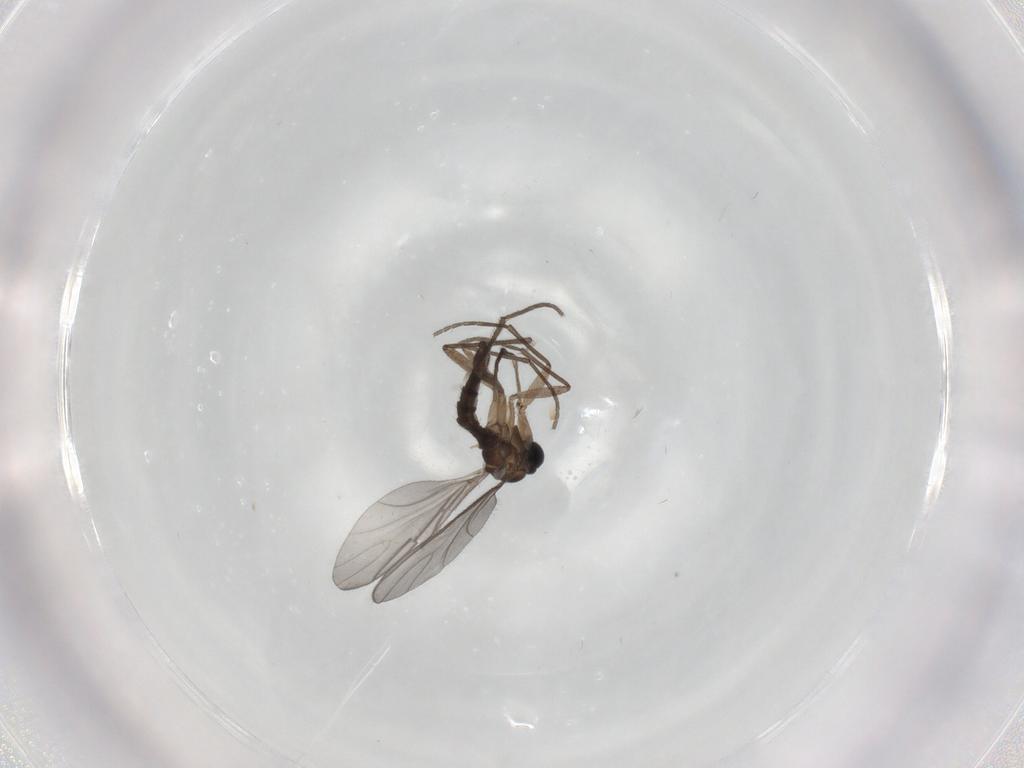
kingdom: Animalia
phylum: Arthropoda
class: Insecta
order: Diptera
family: Sciaridae
